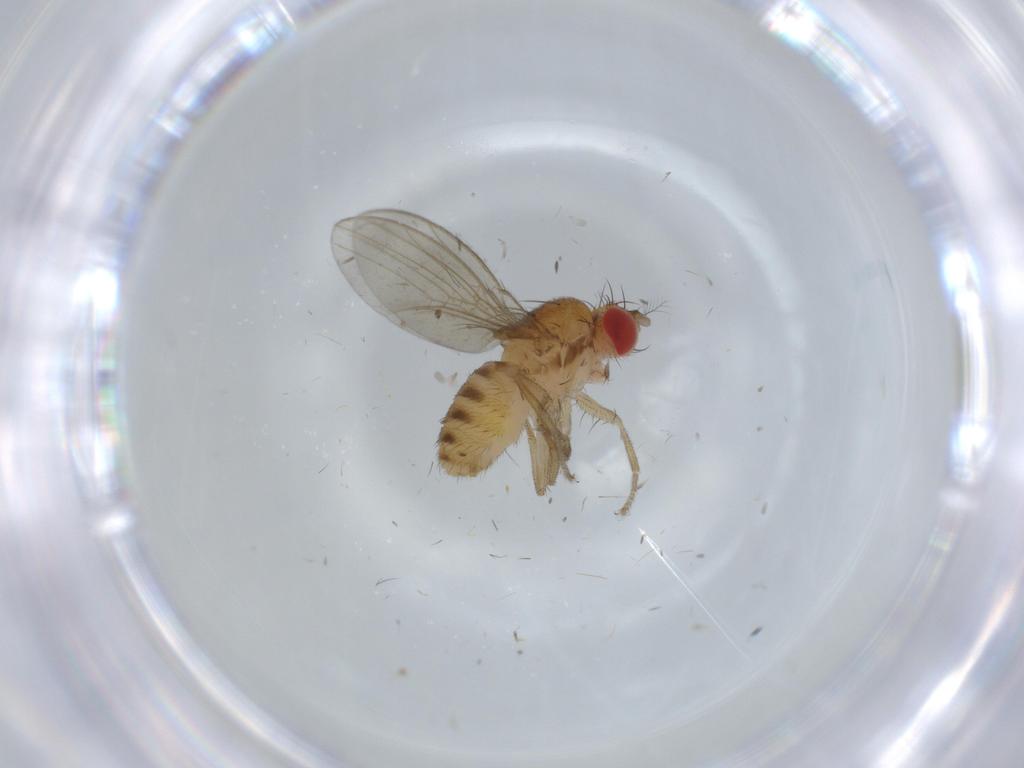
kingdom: Animalia
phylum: Arthropoda
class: Insecta
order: Diptera
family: Drosophilidae
